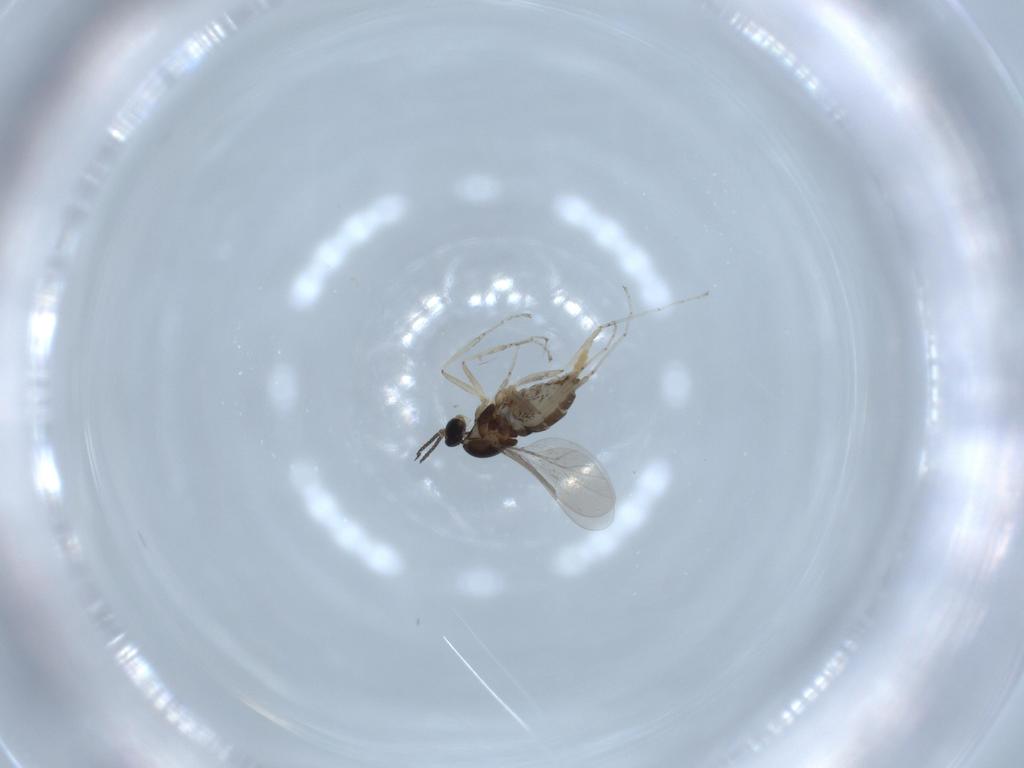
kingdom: Animalia
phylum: Arthropoda
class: Insecta
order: Diptera
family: Cecidomyiidae
